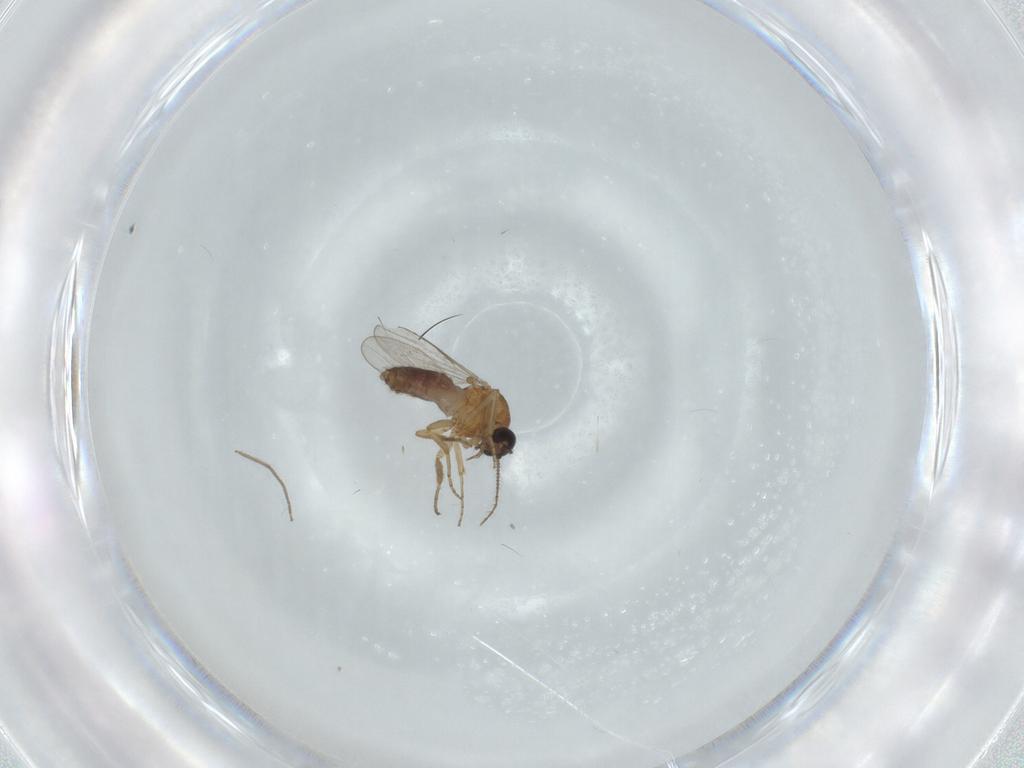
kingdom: Animalia
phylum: Arthropoda
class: Insecta
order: Diptera
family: Ceratopogonidae
